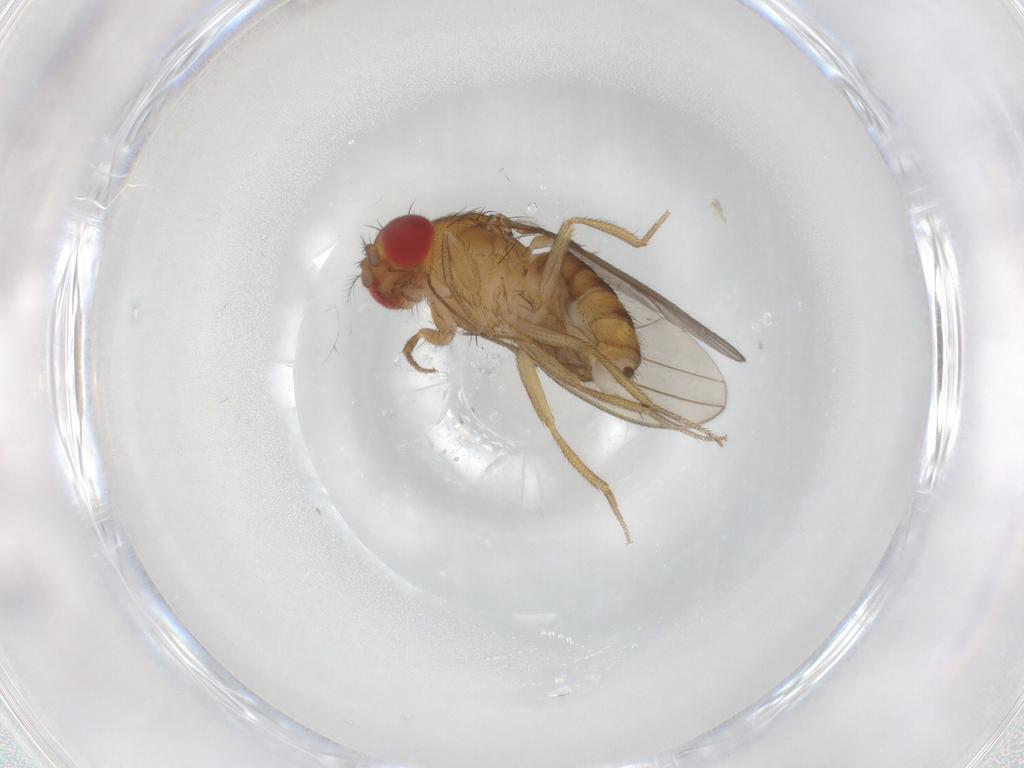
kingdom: Animalia
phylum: Arthropoda
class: Insecta
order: Diptera
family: Drosophilidae
